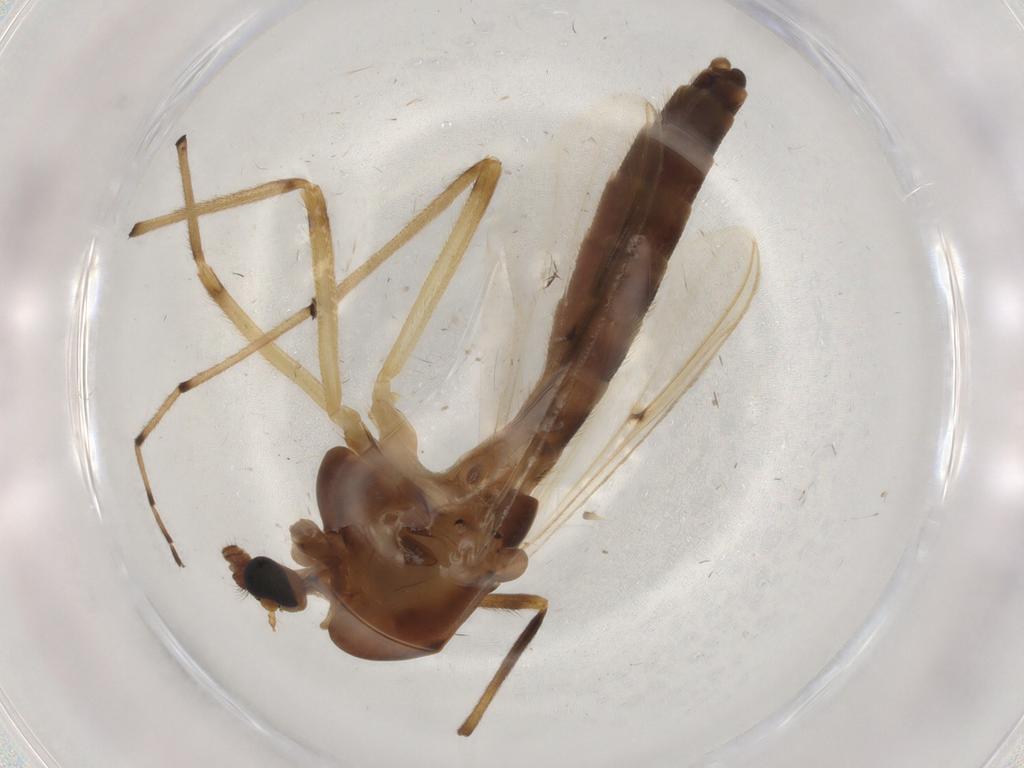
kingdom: Animalia
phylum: Arthropoda
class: Insecta
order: Diptera
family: Chironomidae
